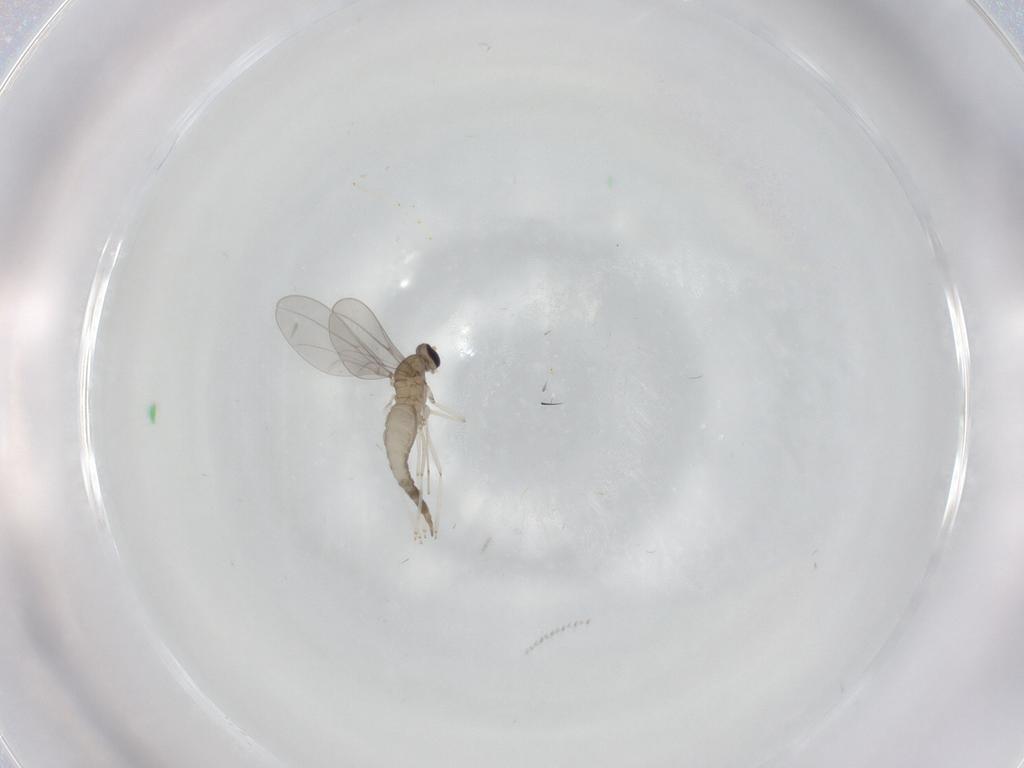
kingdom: Animalia
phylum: Arthropoda
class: Insecta
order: Diptera
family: Cecidomyiidae
